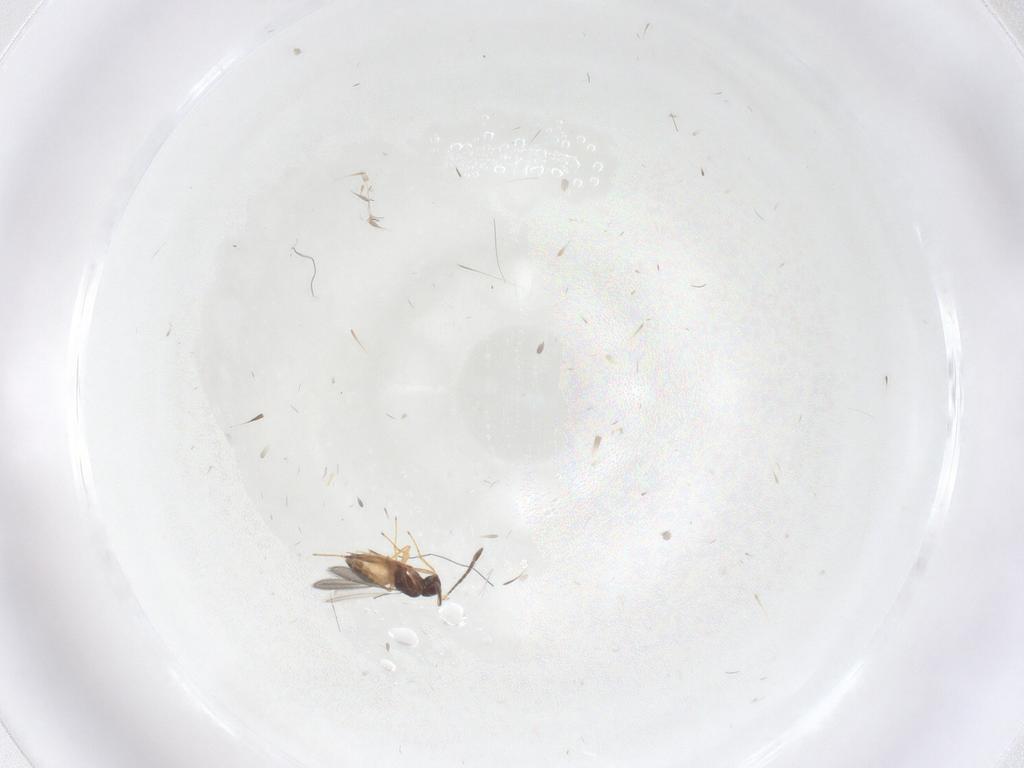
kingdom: Animalia
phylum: Arthropoda
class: Insecta
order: Hymenoptera
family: Mymaridae
